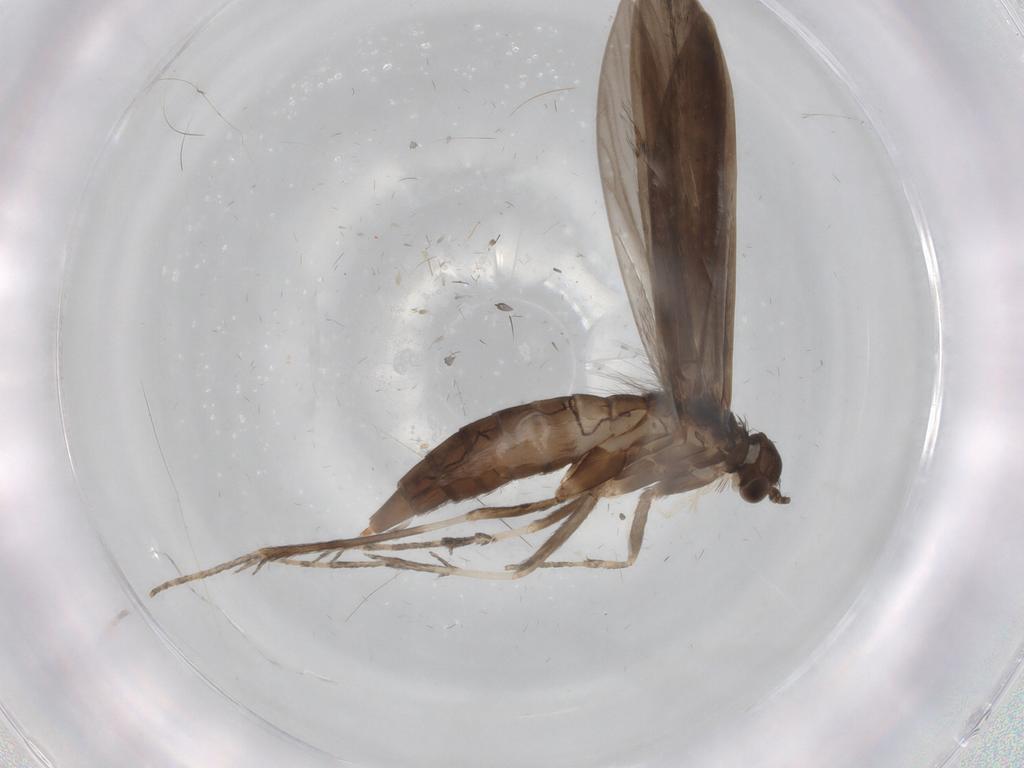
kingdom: Animalia
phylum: Arthropoda
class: Insecta
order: Trichoptera
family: Xiphocentronidae
